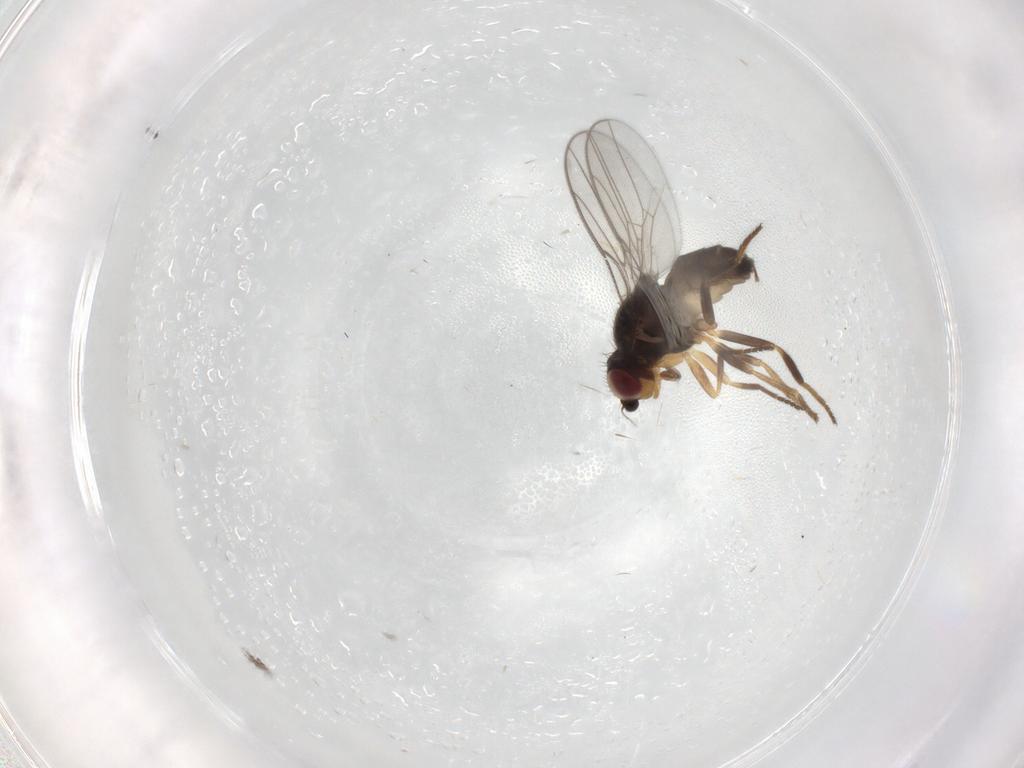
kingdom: Animalia
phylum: Arthropoda
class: Insecta
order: Diptera
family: Chloropidae
